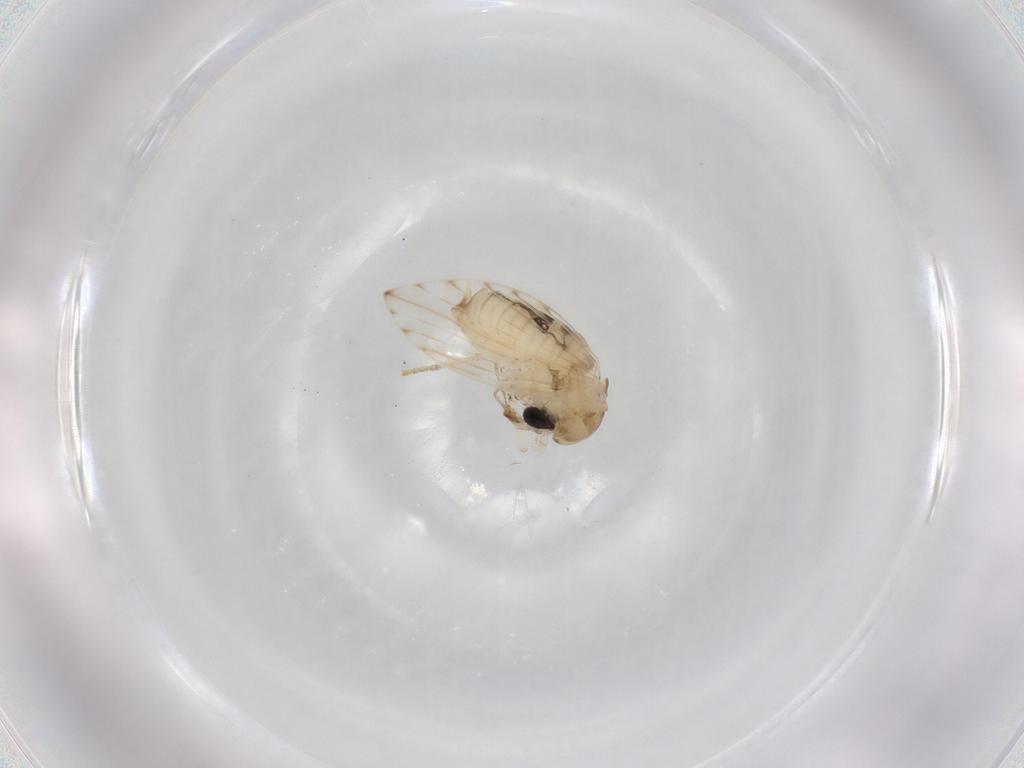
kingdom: Animalia
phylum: Arthropoda
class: Insecta
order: Diptera
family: Psychodidae
